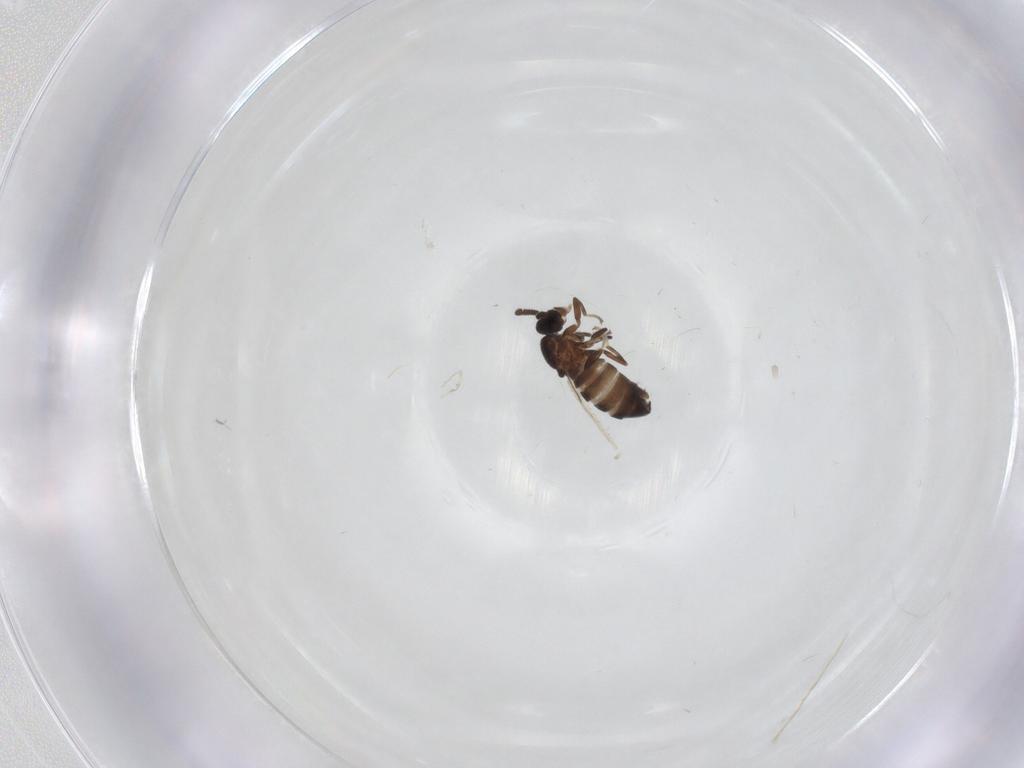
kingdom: Animalia
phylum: Arthropoda
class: Insecta
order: Diptera
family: Scatopsidae
